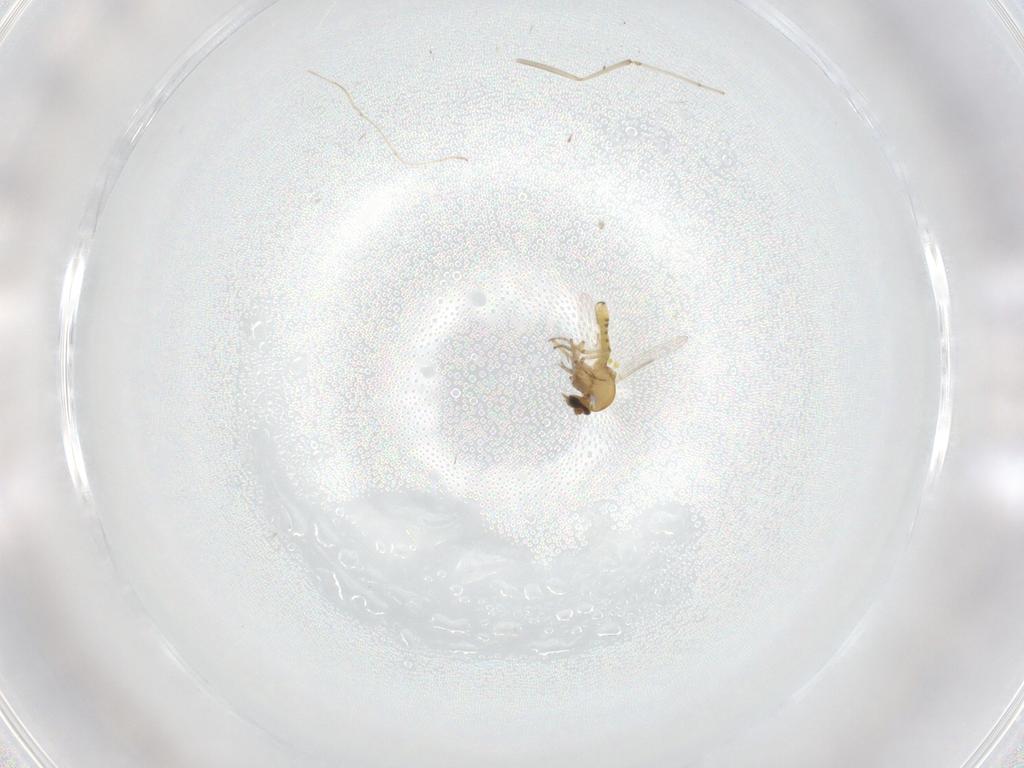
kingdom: Animalia
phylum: Arthropoda
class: Insecta
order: Diptera
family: Ceratopogonidae
